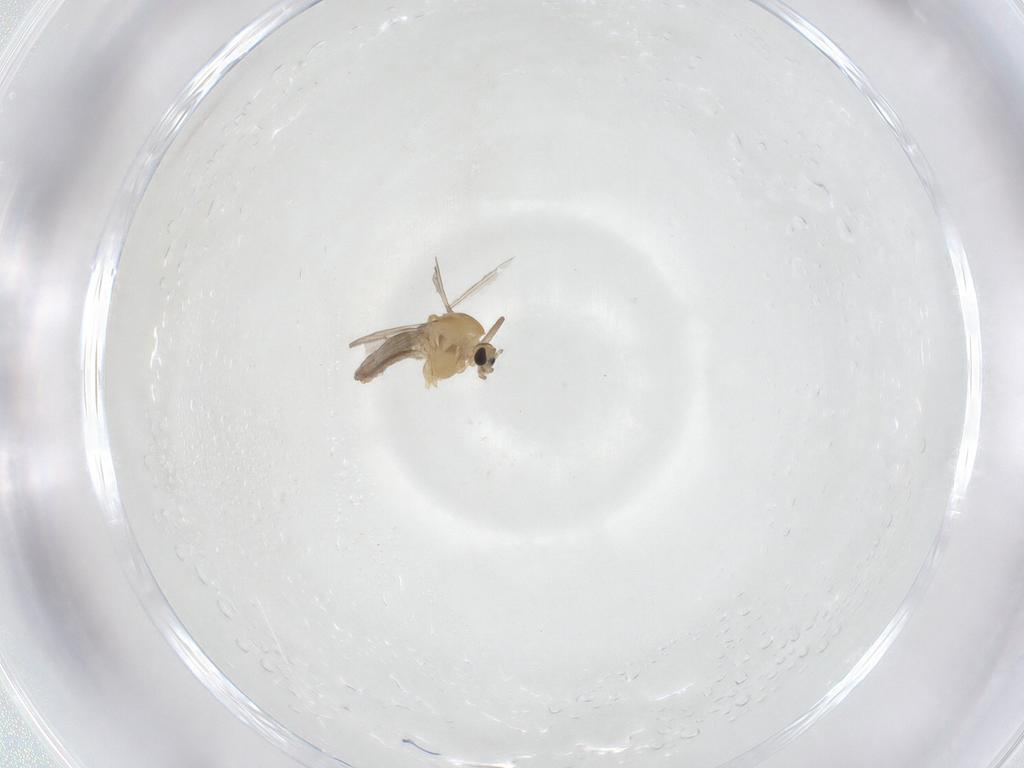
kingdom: Animalia
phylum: Arthropoda
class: Insecta
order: Diptera
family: Chironomidae
